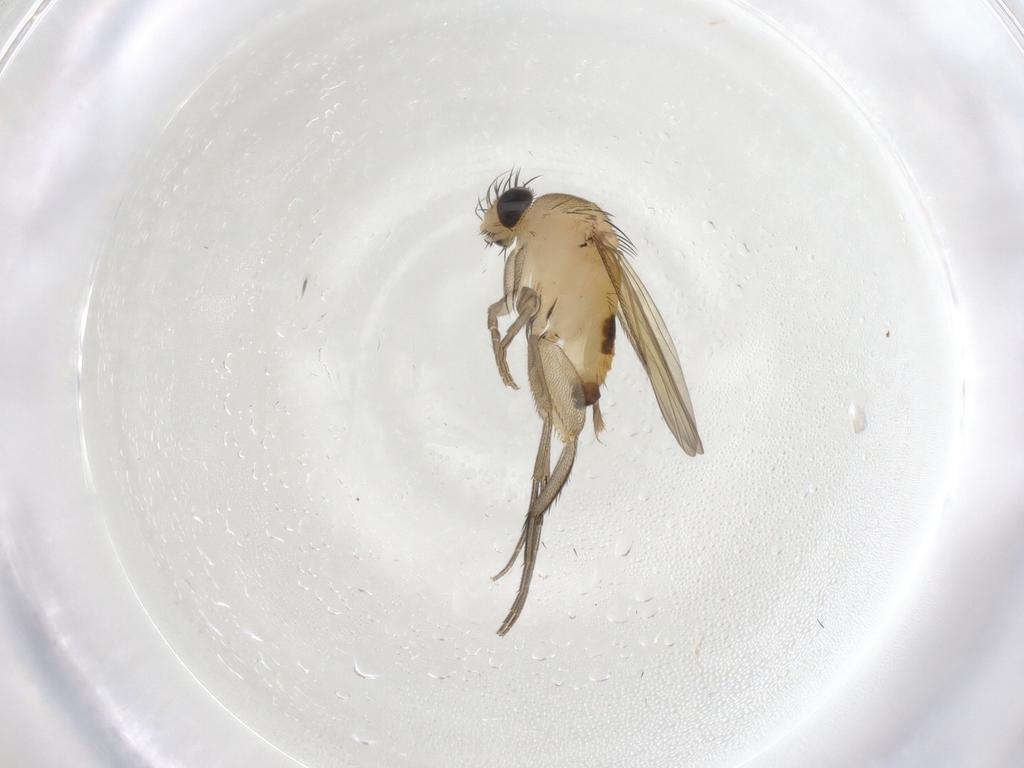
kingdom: Animalia
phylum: Arthropoda
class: Insecta
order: Diptera
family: Phoridae
